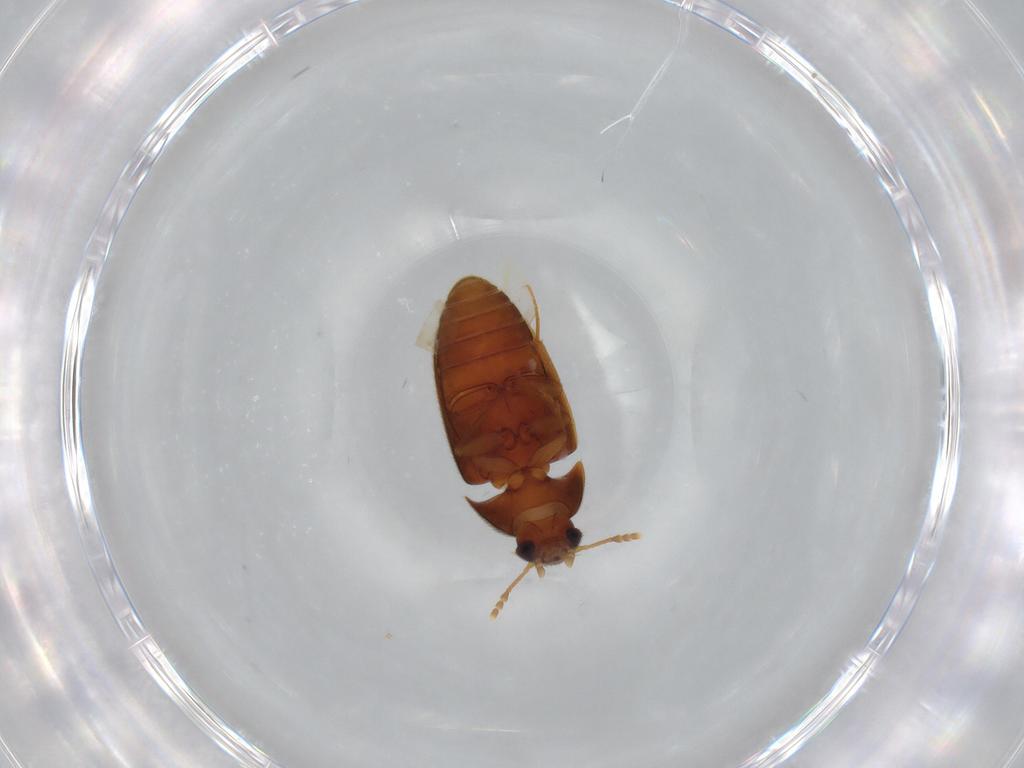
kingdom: Animalia
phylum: Arthropoda
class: Insecta
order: Coleoptera
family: Mycetophagidae
